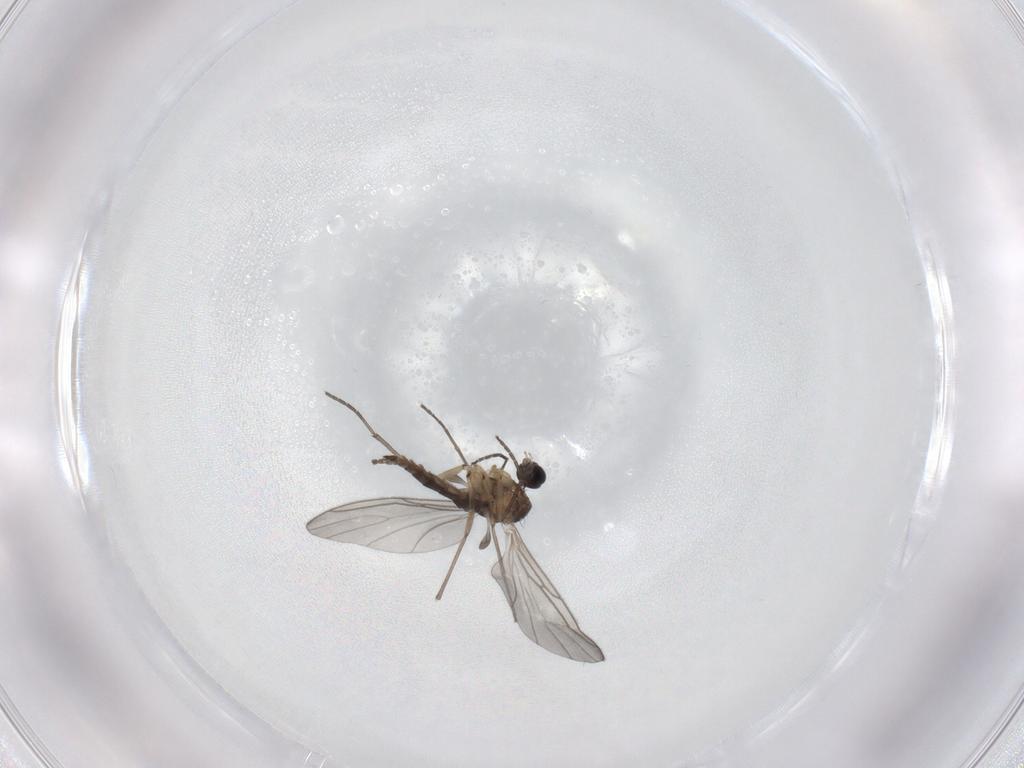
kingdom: Animalia
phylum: Arthropoda
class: Insecta
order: Diptera
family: Sciaridae
